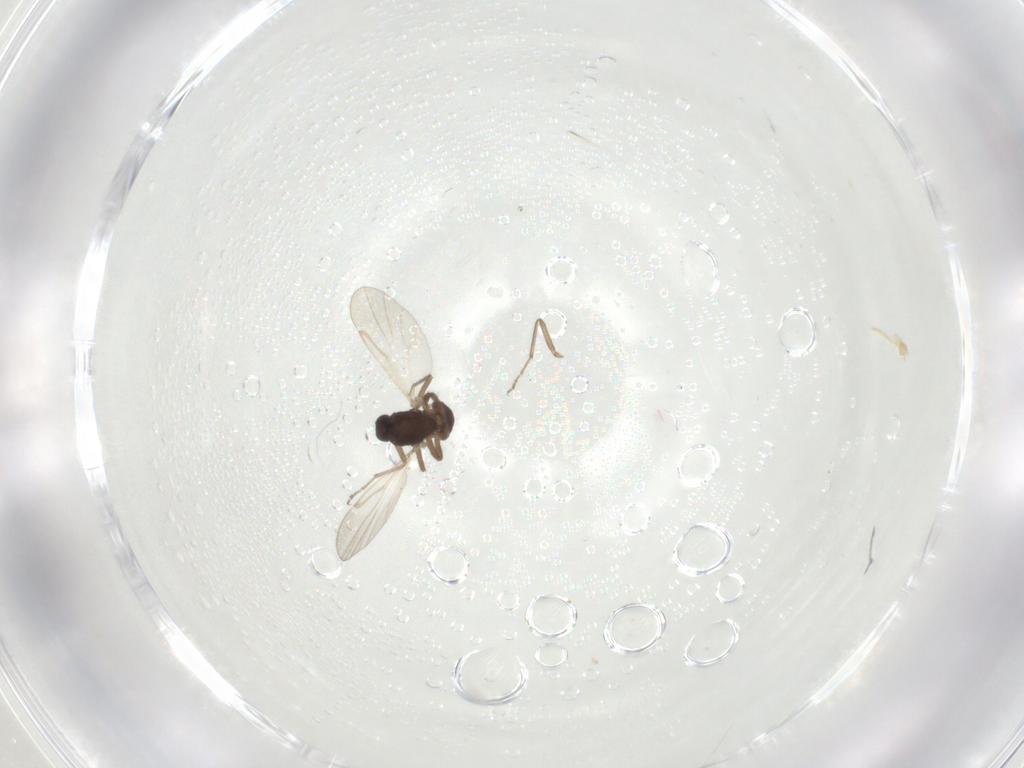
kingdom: Animalia
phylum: Arthropoda
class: Insecta
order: Diptera
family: Ceratopogonidae
